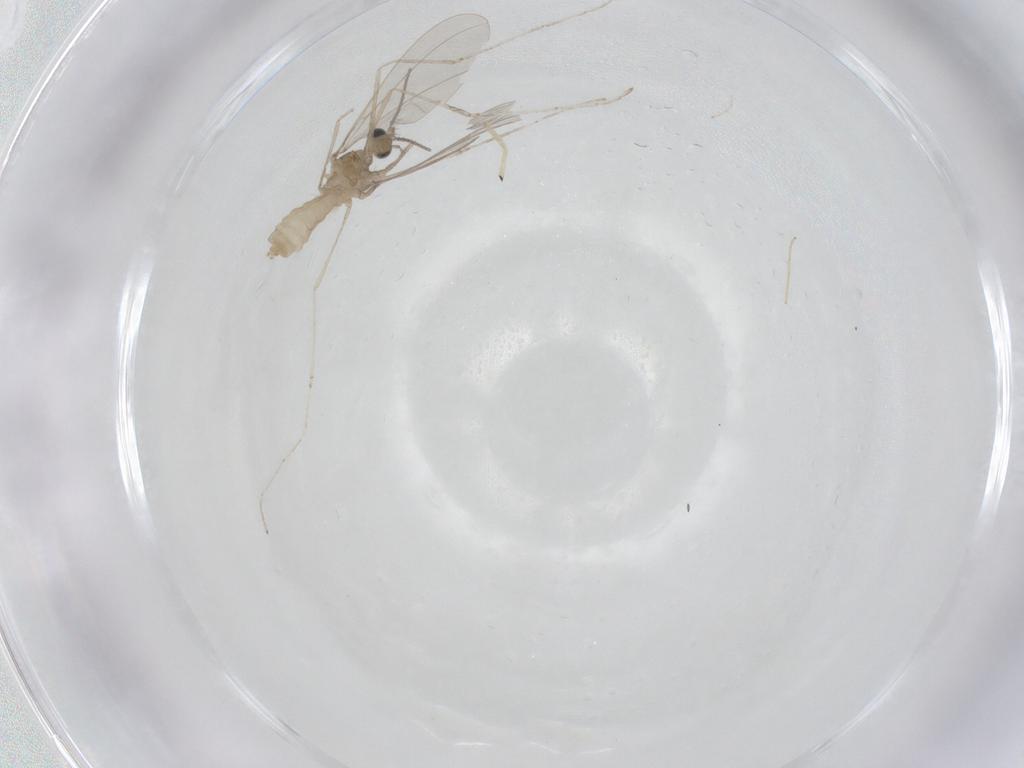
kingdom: Animalia
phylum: Arthropoda
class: Insecta
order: Diptera
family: Cecidomyiidae
